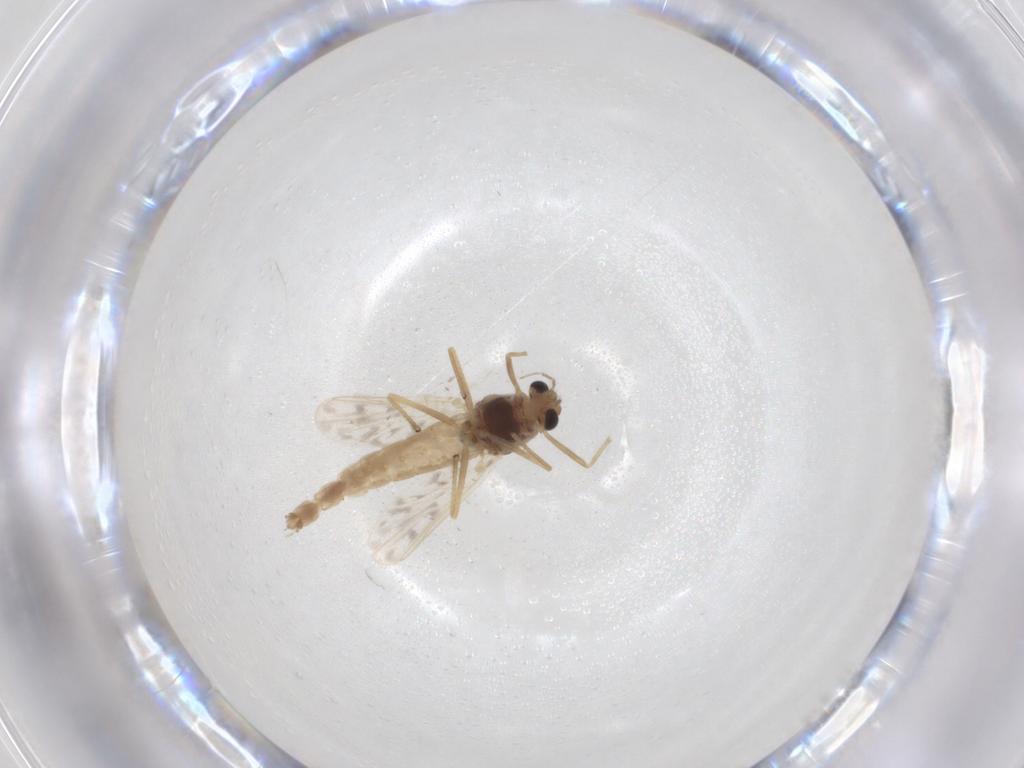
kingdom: Animalia
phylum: Arthropoda
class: Insecta
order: Diptera
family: Chironomidae
